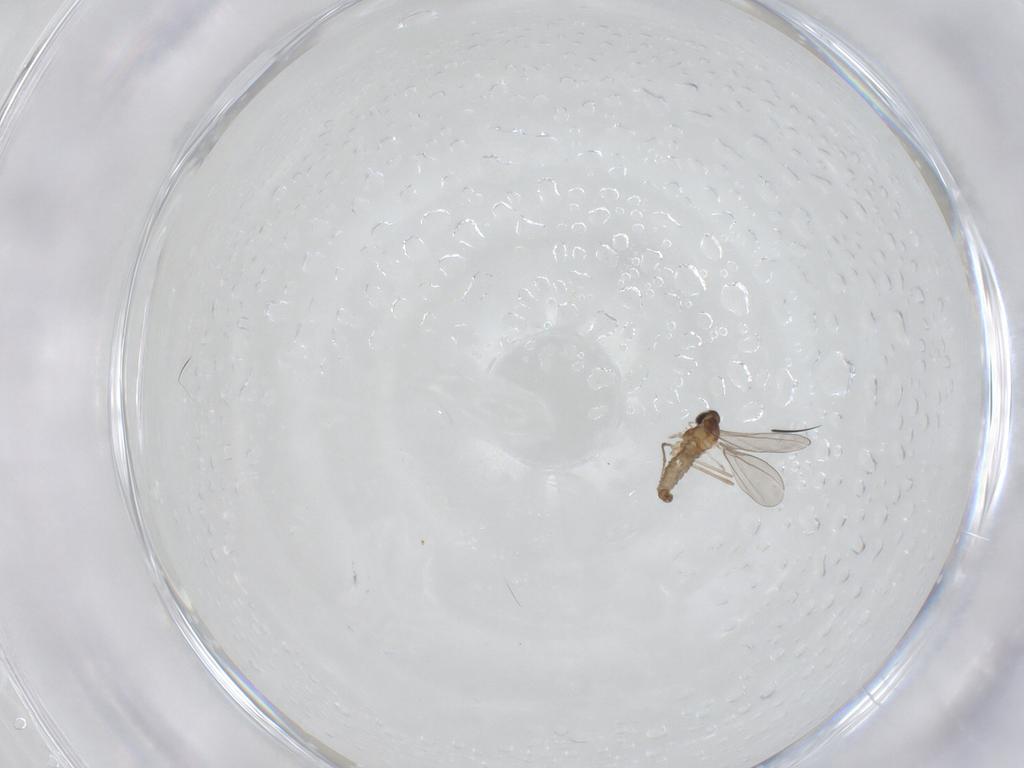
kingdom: Animalia
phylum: Arthropoda
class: Insecta
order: Diptera
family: Cecidomyiidae
